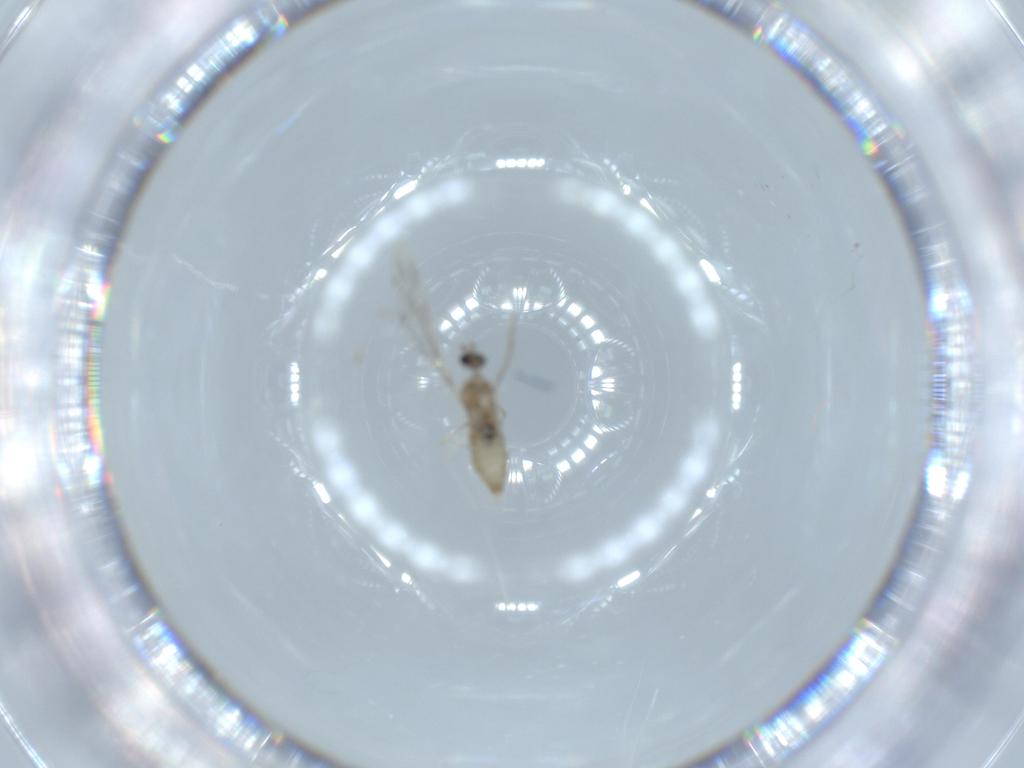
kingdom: Animalia
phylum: Arthropoda
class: Insecta
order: Diptera
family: Cecidomyiidae
